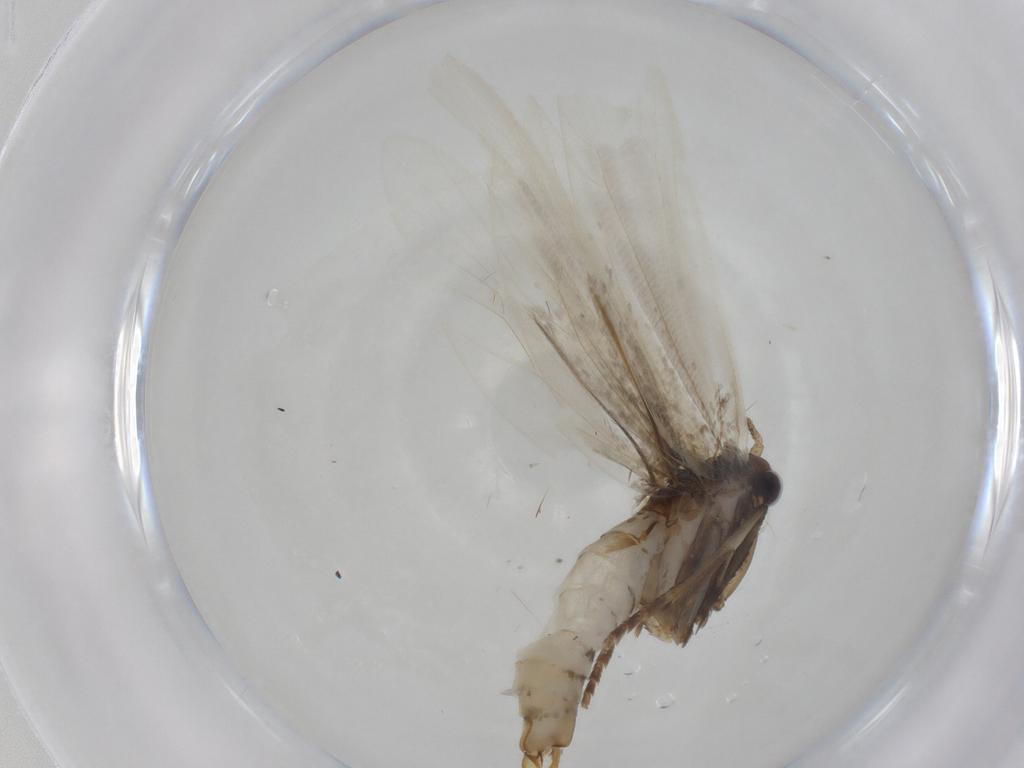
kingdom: Animalia
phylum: Arthropoda
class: Insecta
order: Lepidoptera
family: Tineidae
